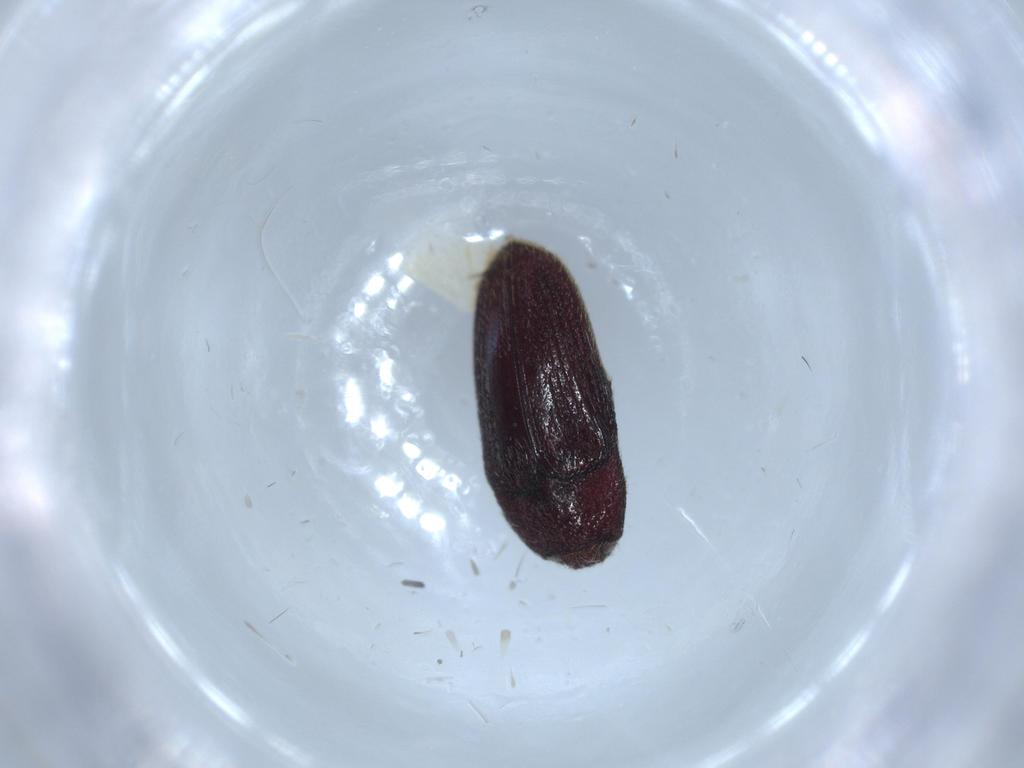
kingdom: Animalia
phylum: Arthropoda
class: Insecta
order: Coleoptera
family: Throscidae
